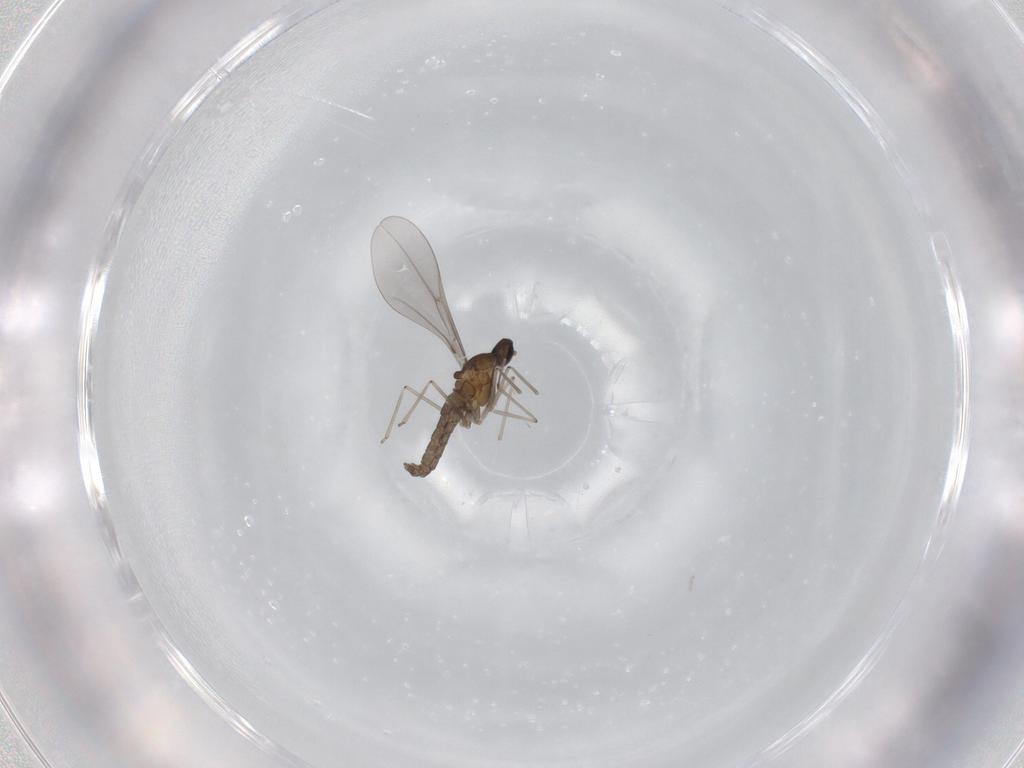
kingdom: Animalia
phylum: Arthropoda
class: Insecta
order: Diptera
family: Cecidomyiidae
